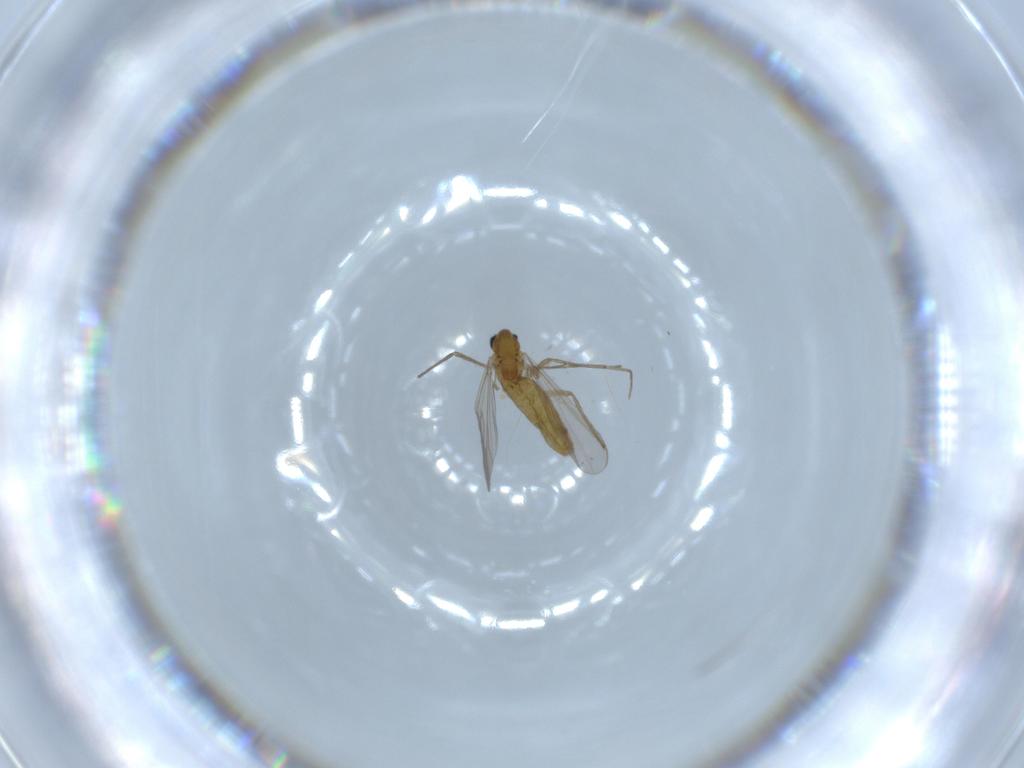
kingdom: Animalia
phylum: Arthropoda
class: Insecta
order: Diptera
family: Chironomidae
